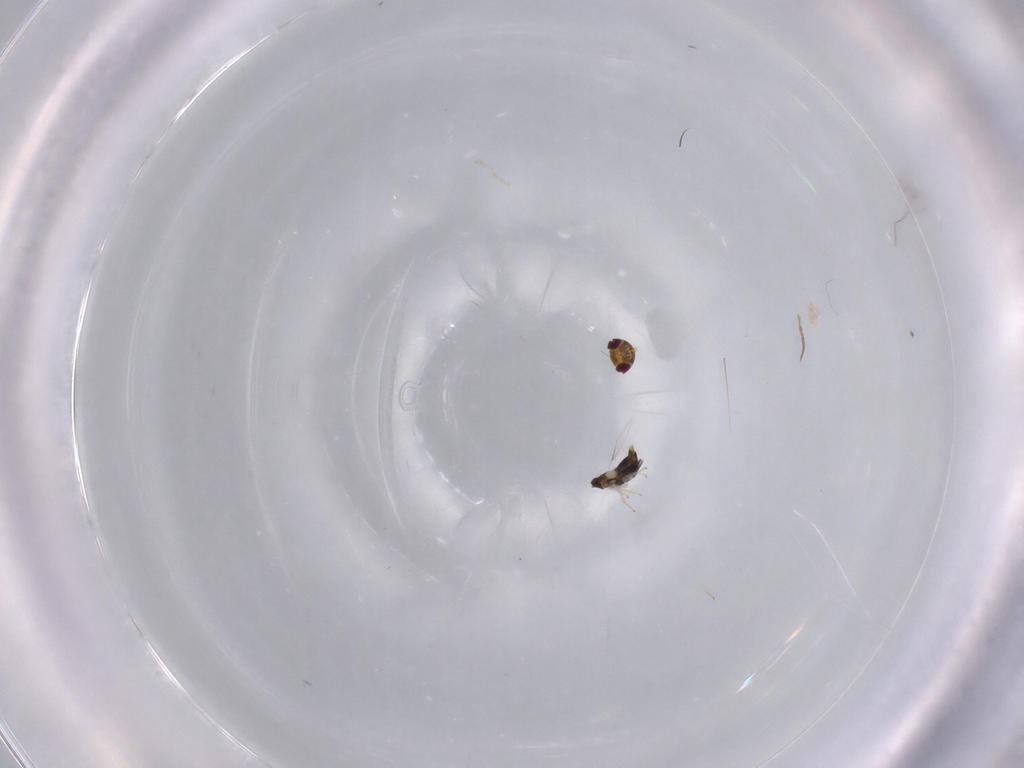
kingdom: Animalia
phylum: Arthropoda
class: Insecta
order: Hymenoptera
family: Aphelinidae
